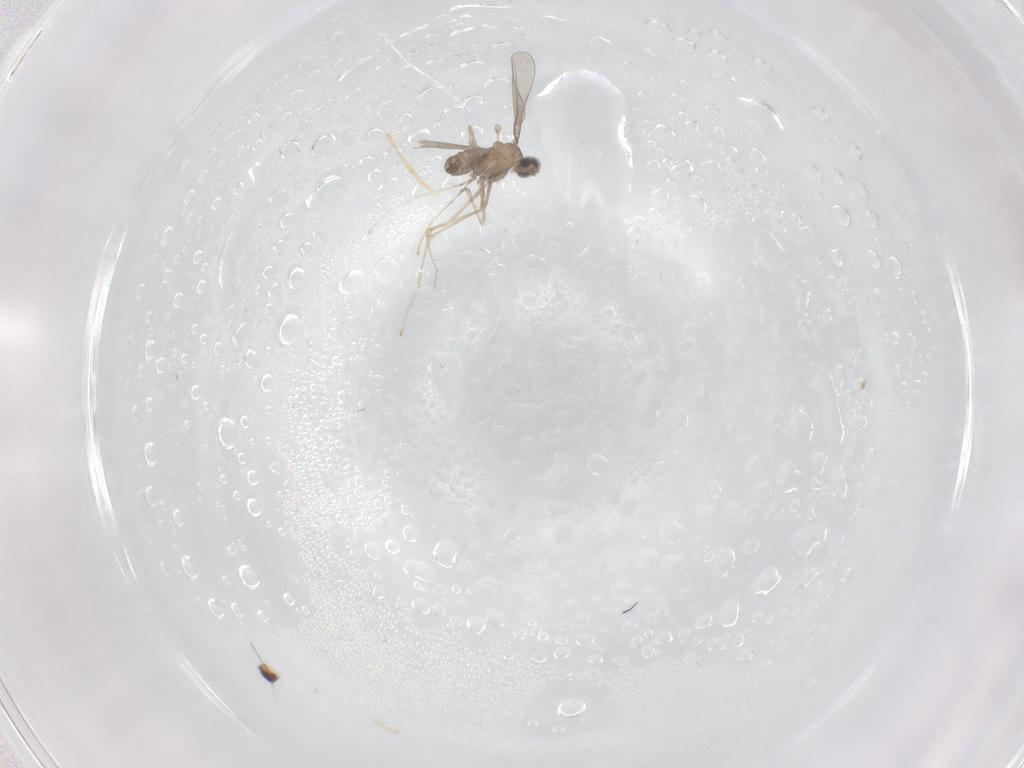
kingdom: Animalia
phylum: Arthropoda
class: Insecta
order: Diptera
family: Cecidomyiidae
